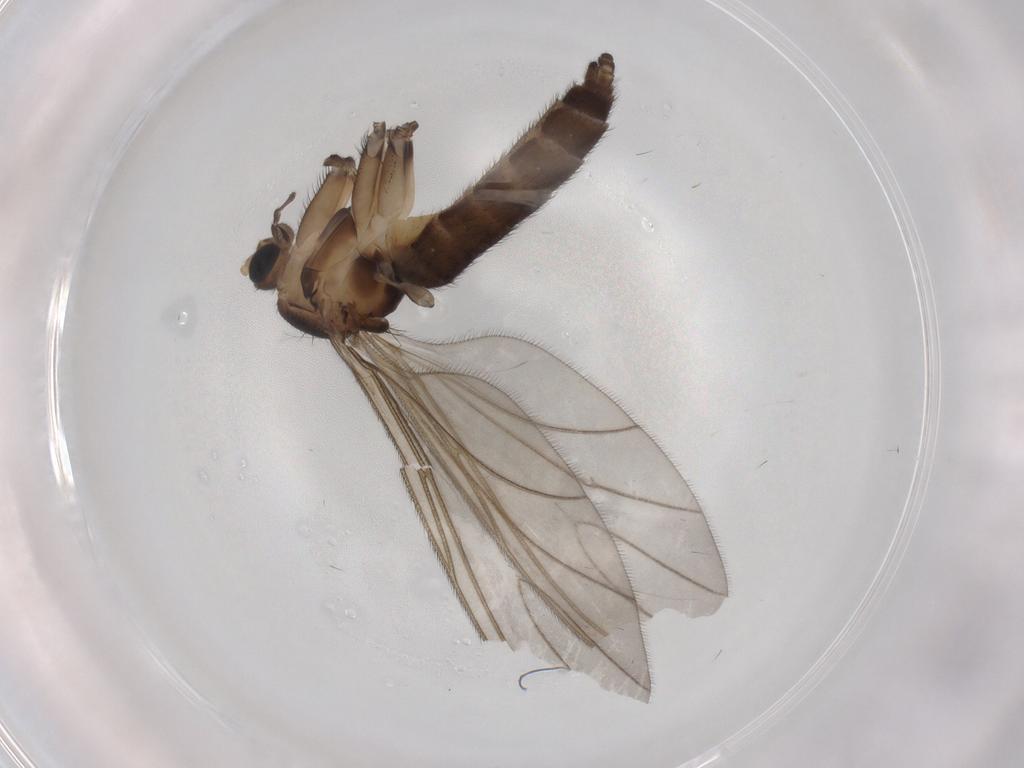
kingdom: Animalia
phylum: Arthropoda
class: Insecta
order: Diptera
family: Sciaridae
